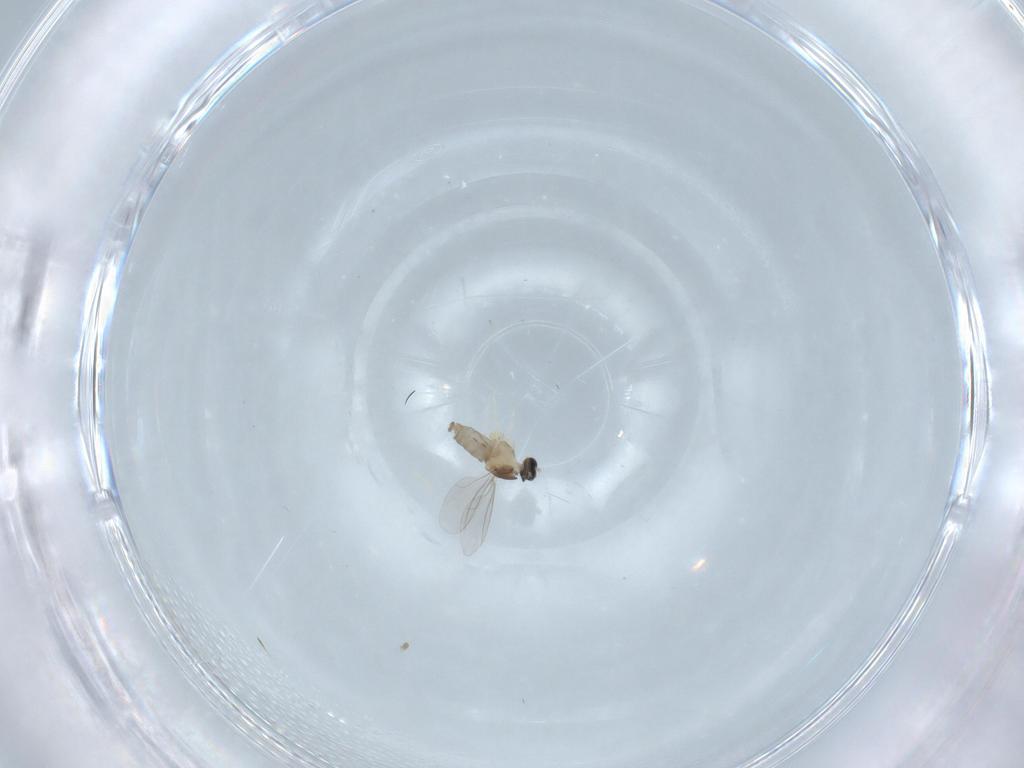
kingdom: Animalia
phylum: Arthropoda
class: Insecta
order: Diptera
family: Cecidomyiidae
